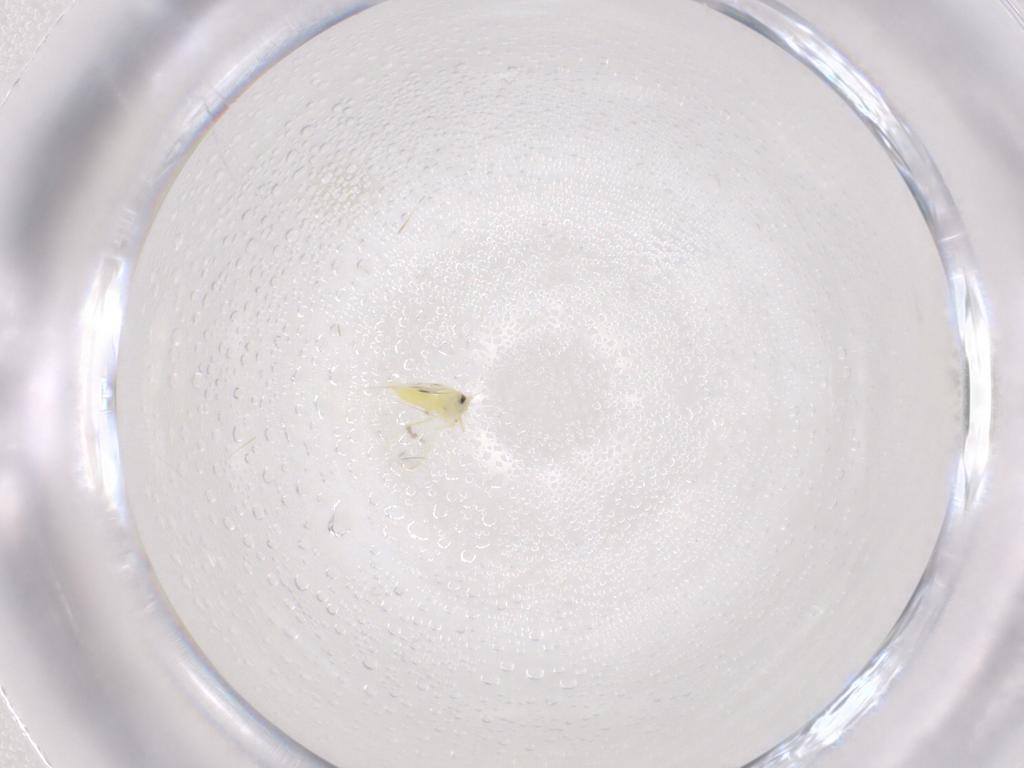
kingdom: Animalia
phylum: Arthropoda
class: Insecta
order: Hemiptera
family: Aleyrodidae
